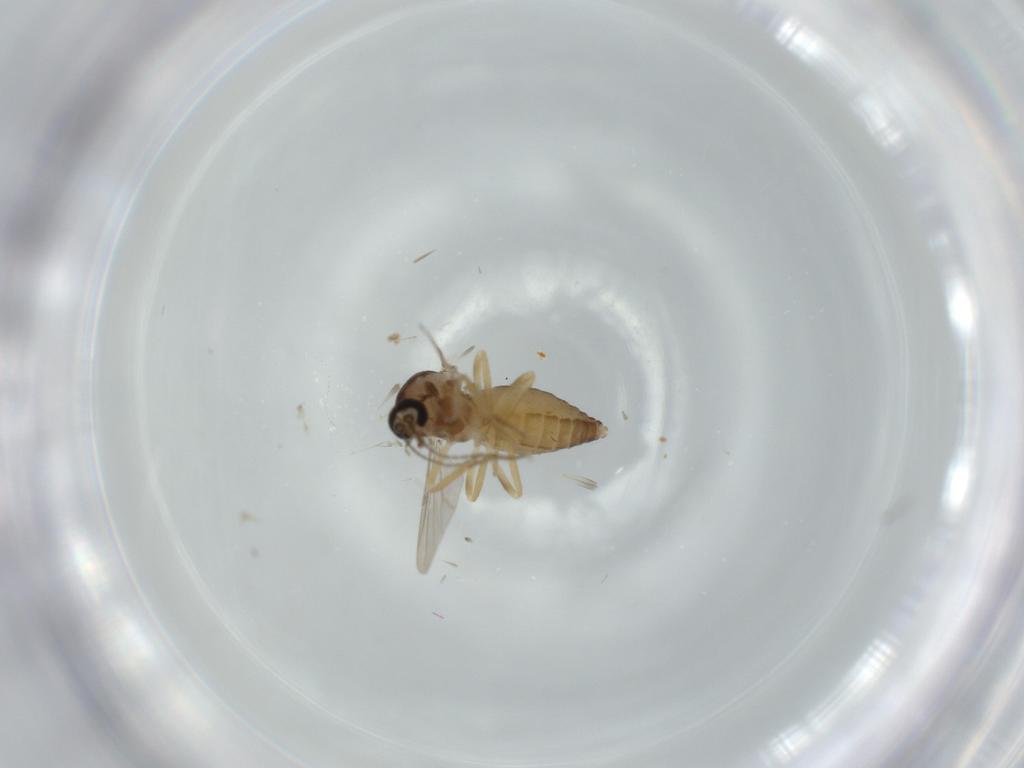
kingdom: Animalia
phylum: Arthropoda
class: Insecta
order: Diptera
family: Ceratopogonidae
